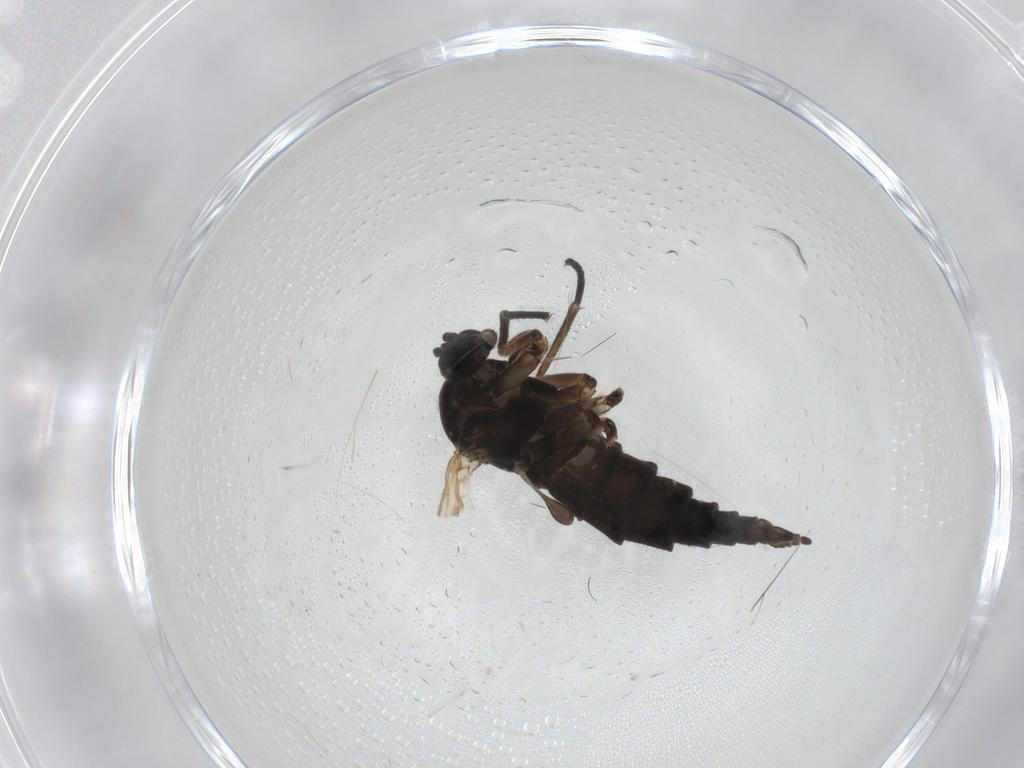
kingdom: Animalia
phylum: Arthropoda
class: Insecta
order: Diptera
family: Sciaridae
